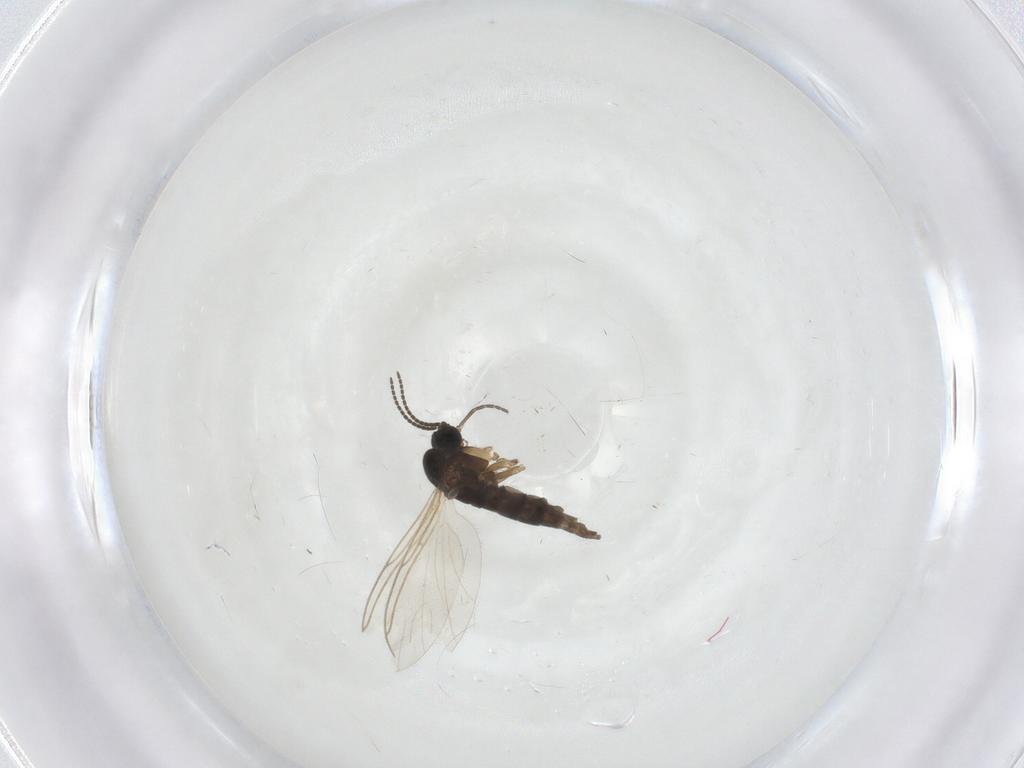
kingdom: Animalia
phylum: Arthropoda
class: Insecta
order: Diptera
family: Sciaridae
